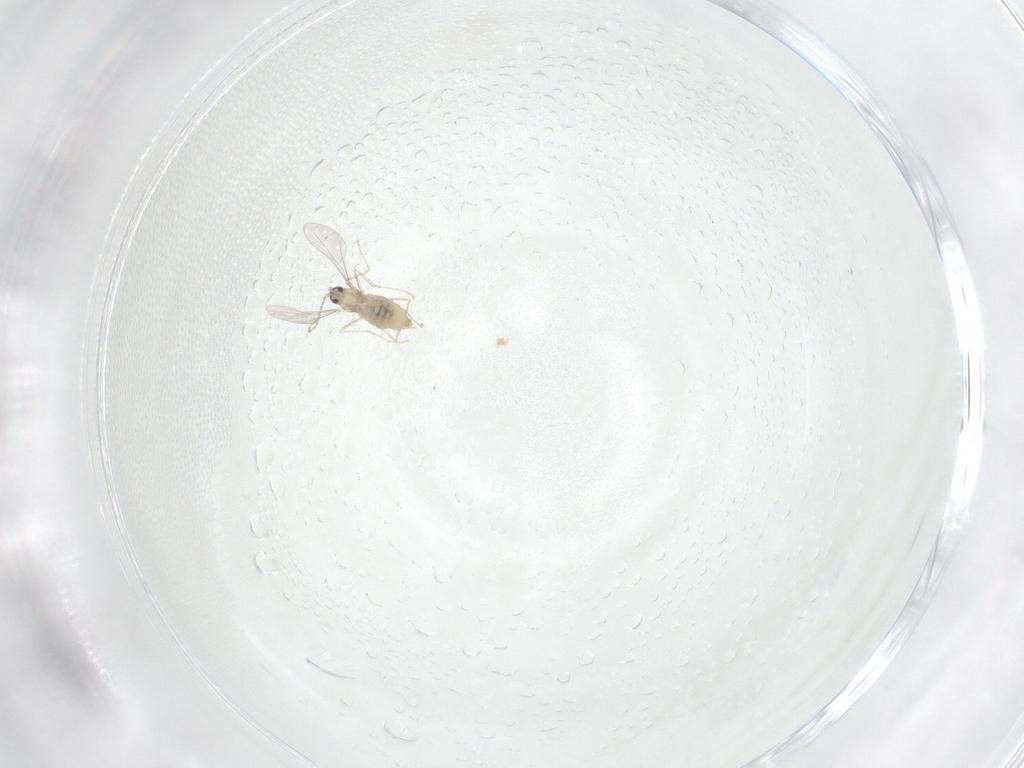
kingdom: Animalia
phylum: Arthropoda
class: Insecta
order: Diptera
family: Cecidomyiidae
